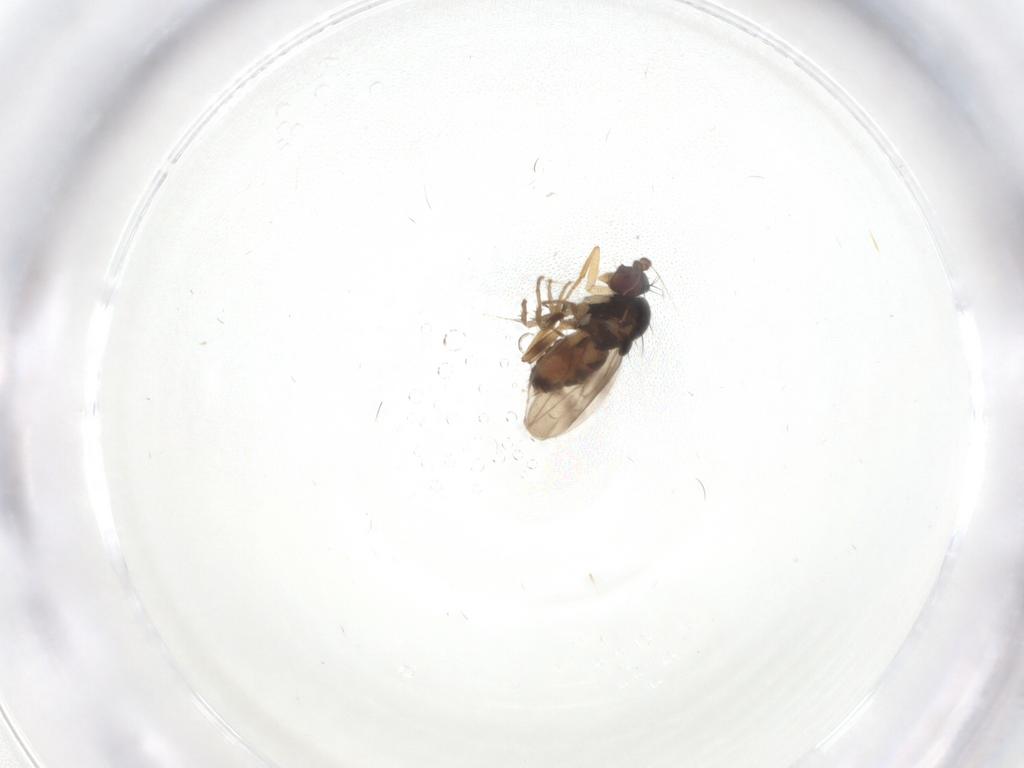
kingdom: Animalia
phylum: Arthropoda
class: Insecta
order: Diptera
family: Sphaeroceridae
